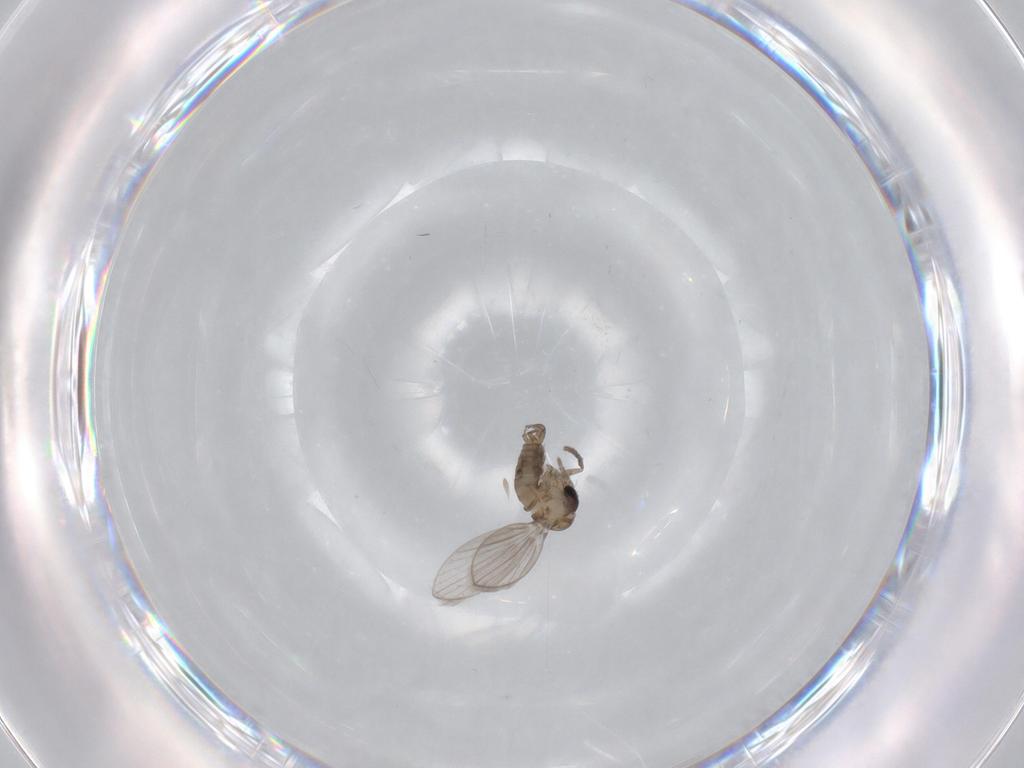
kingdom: Animalia
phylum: Arthropoda
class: Insecta
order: Diptera
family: Psychodidae
